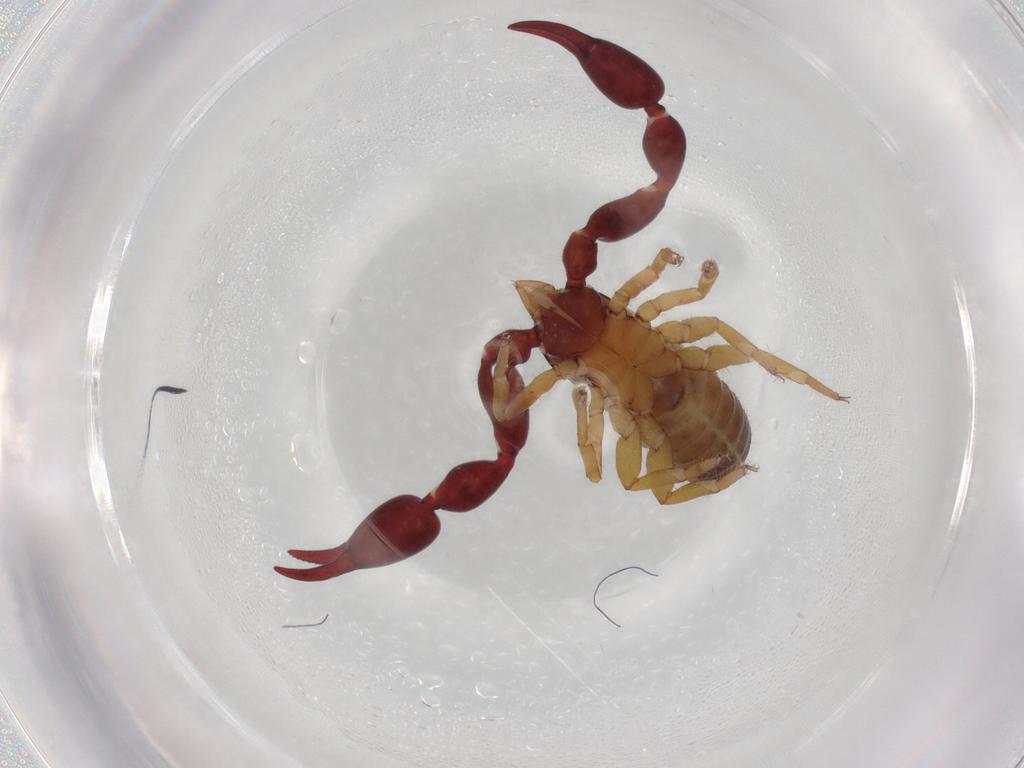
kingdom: Animalia
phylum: Arthropoda
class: Arachnida
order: Pseudoscorpiones
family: Chernetidae
